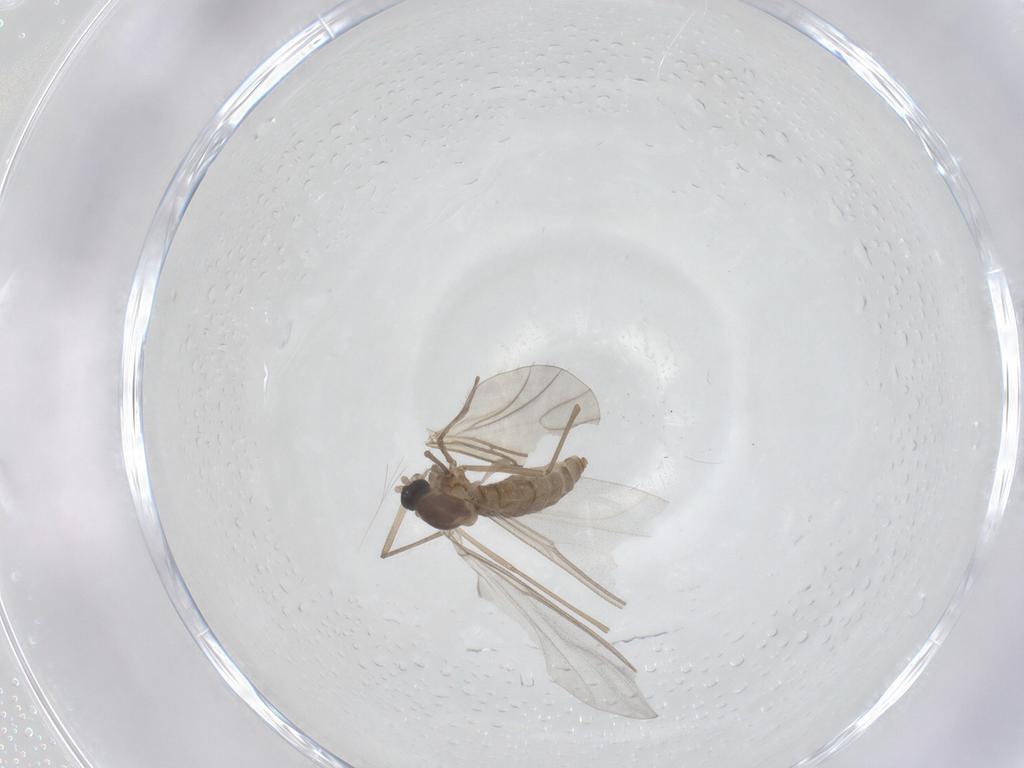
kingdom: Animalia
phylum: Arthropoda
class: Insecta
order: Diptera
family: Cecidomyiidae
